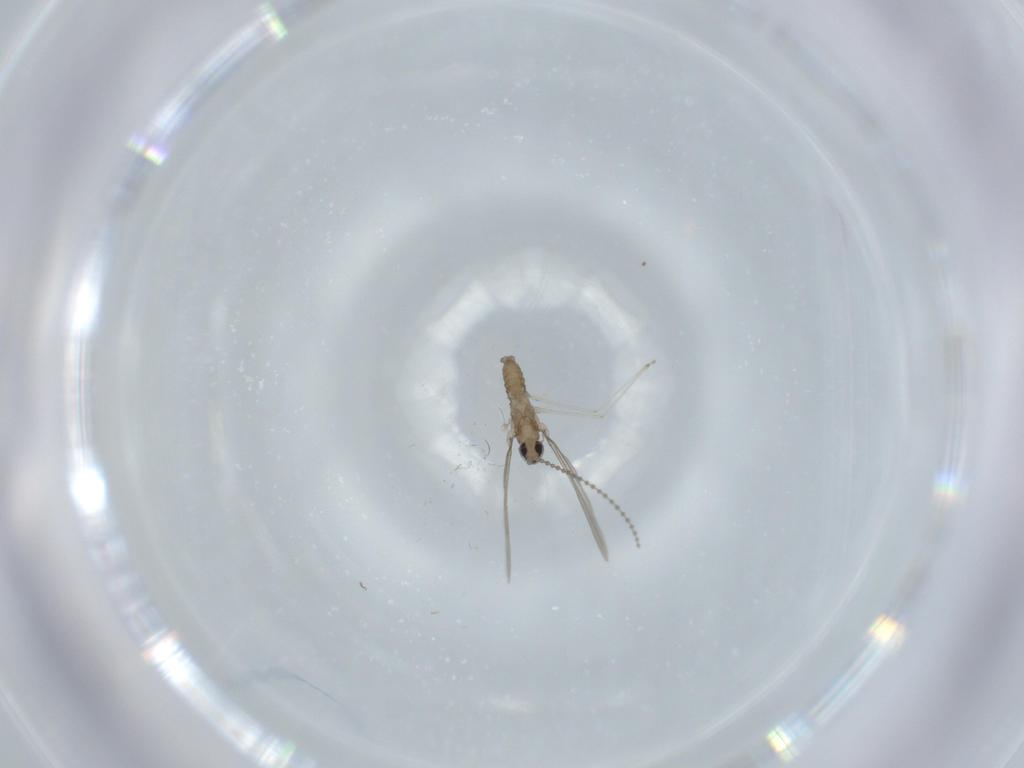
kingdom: Animalia
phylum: Arthropoda
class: Insecta
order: Diptera
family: Cecidomyiidae
